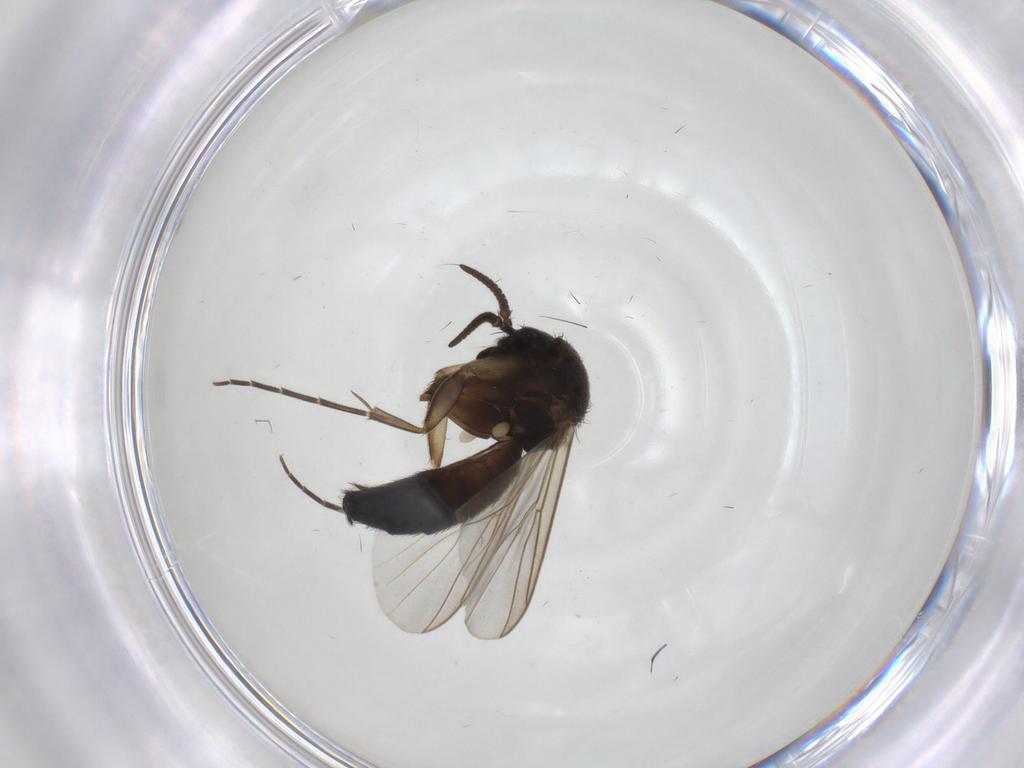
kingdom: Animalia
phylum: Arthropoda
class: Insecta
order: Diptera
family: Mycetophilidae
